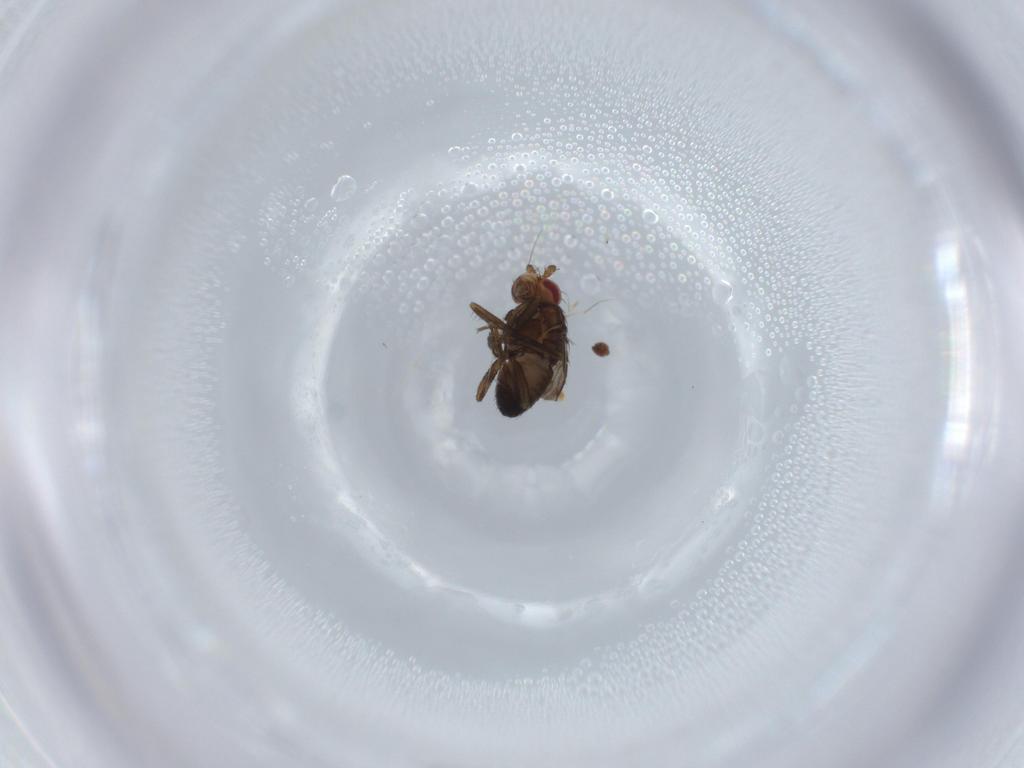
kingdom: Animalia
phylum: Arthropoda
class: Insecta
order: Diptera
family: Sphaeroceridae
